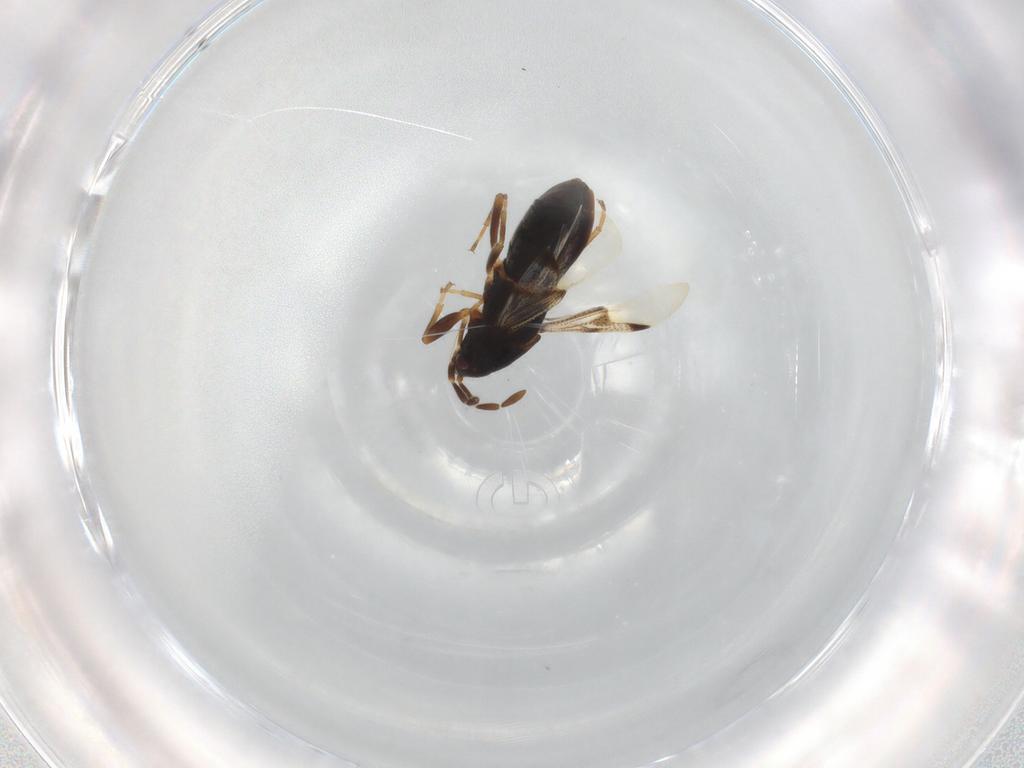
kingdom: Animalia
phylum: Arthropoda
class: Insecta
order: Hemiptera
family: Rhyparochromidae
